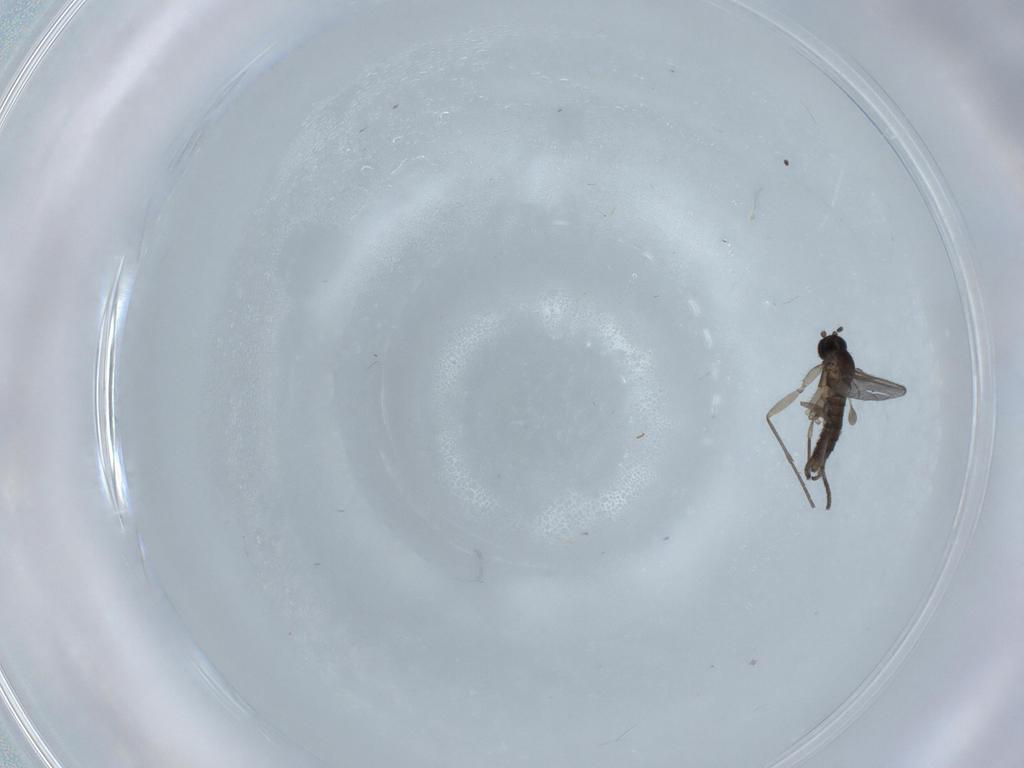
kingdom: Animalia
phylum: Arthropoda
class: Insecta
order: Diptera
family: Sciaridae
